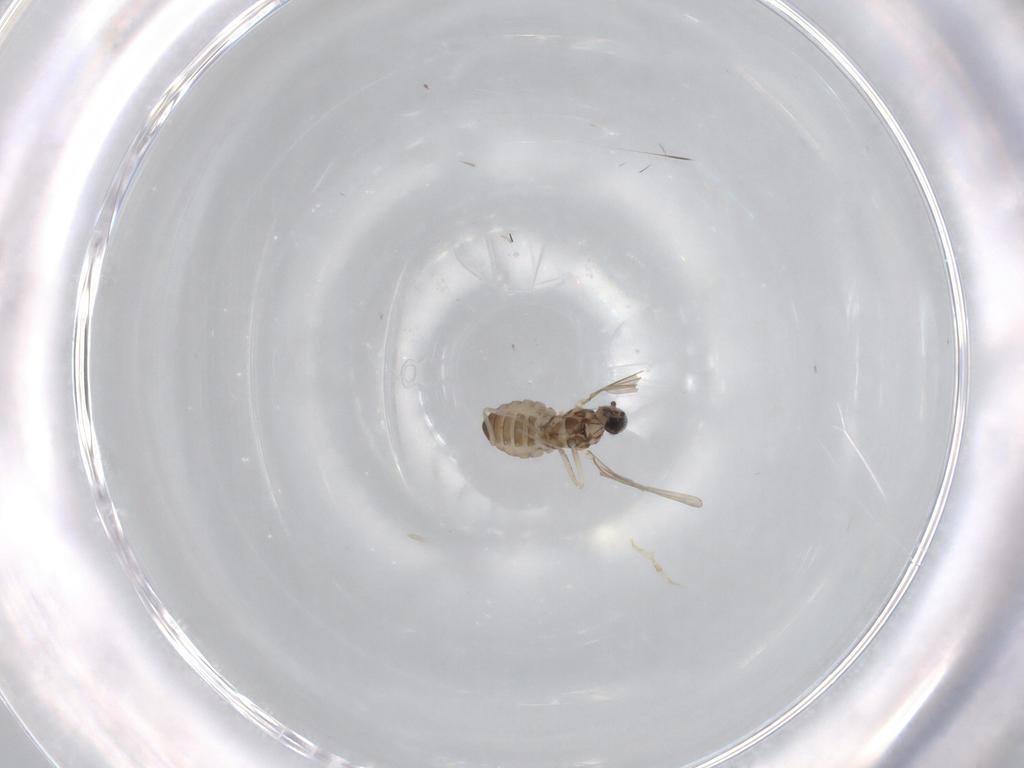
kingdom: Animalia
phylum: Arthropoda
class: Insecta
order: Diptera
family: Cecidomyiidae
